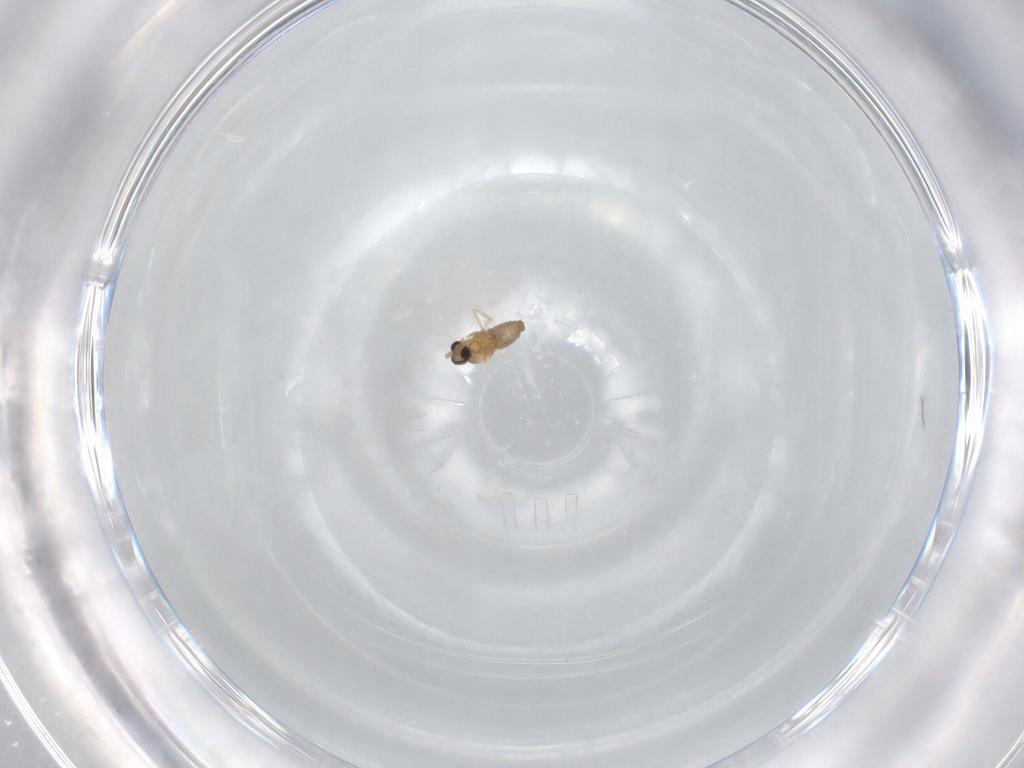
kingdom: Animalia
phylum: Arthropoda
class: Insecta
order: Diptera
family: Cecidomyiidae
